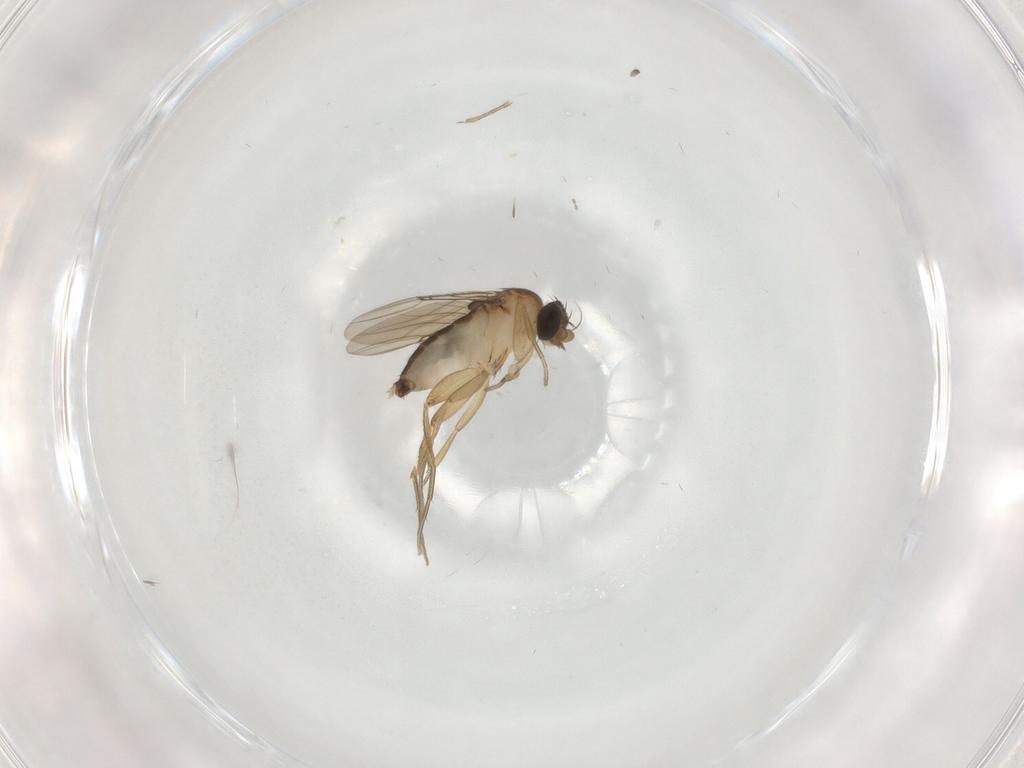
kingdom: Animalia
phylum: Arthropoda
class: Insecta
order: Diptera
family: Phoridae
